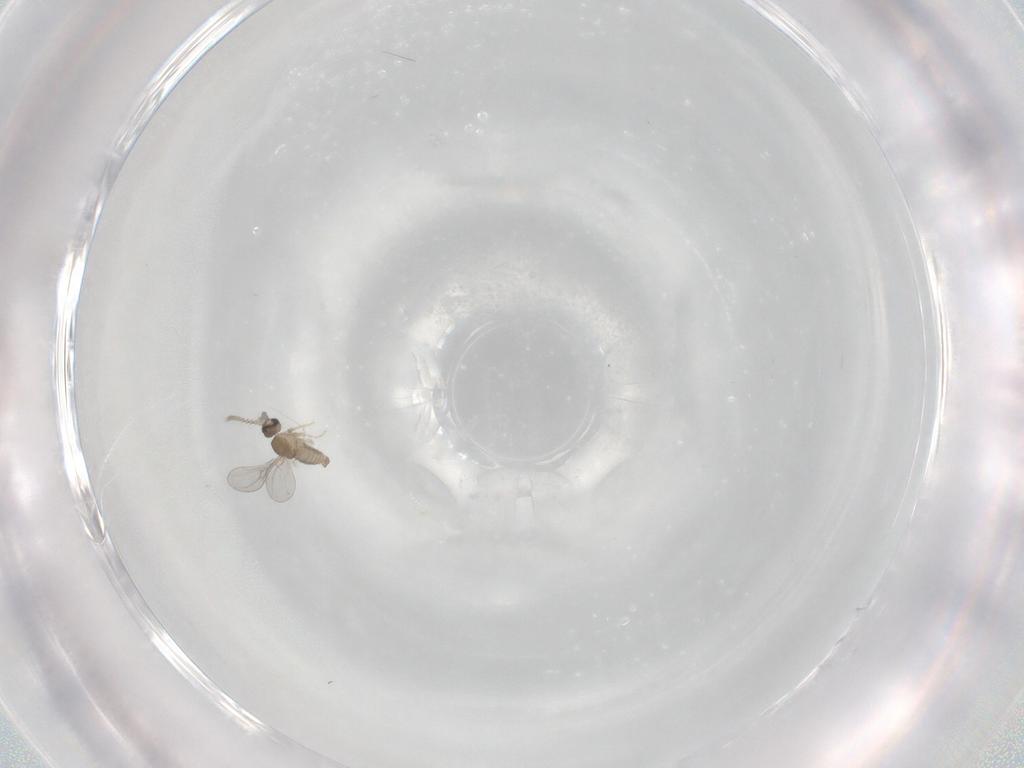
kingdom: Animalia
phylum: Arthropoda
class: Insecta
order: Diptera
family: Cecidomyiidae
